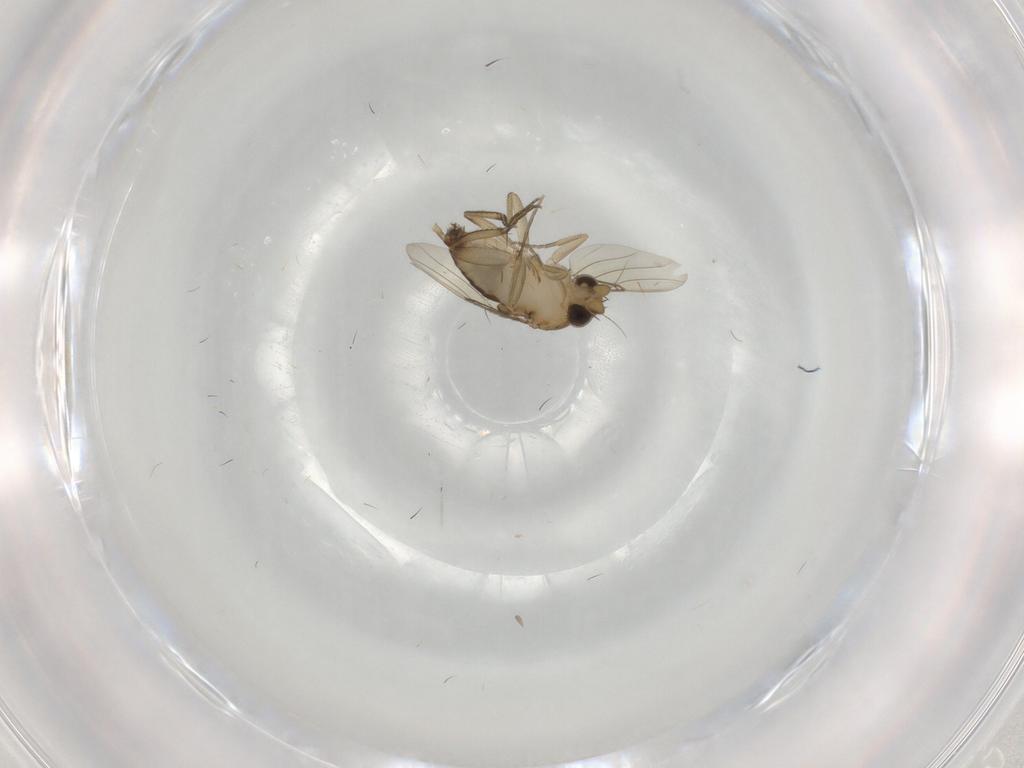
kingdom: Animalia
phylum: Arthropoda
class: Insecta
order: Diptera
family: Phoridae
